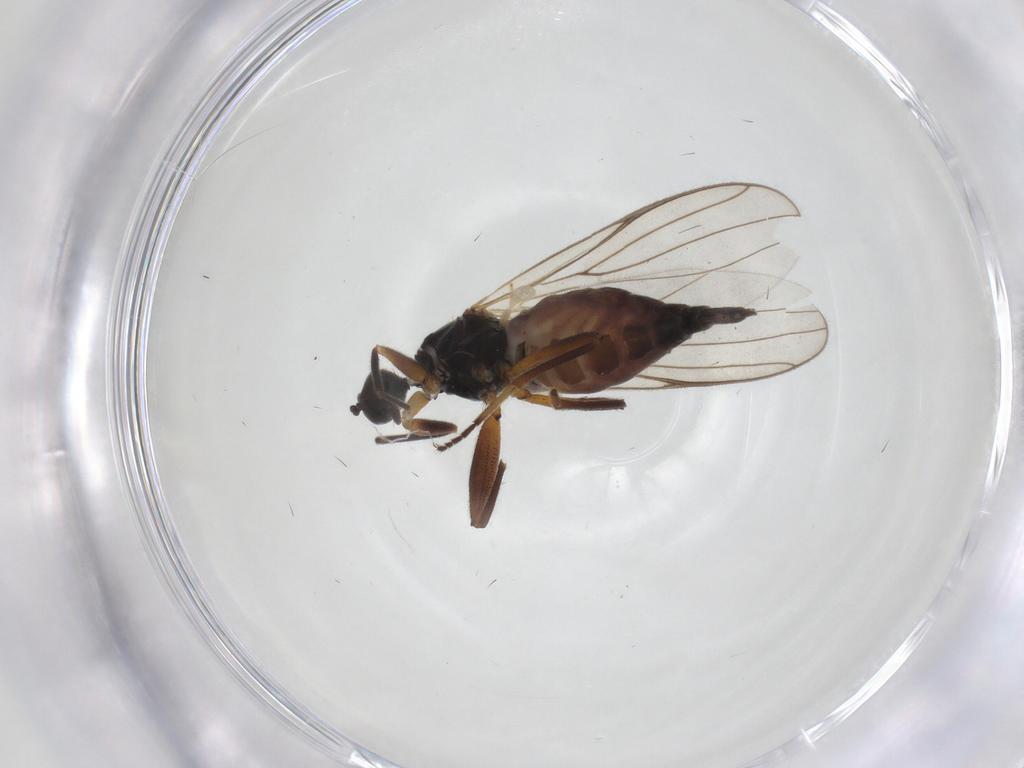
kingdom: Animalia
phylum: Arthropoda
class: Insecta
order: Diptera
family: Hybotidae
